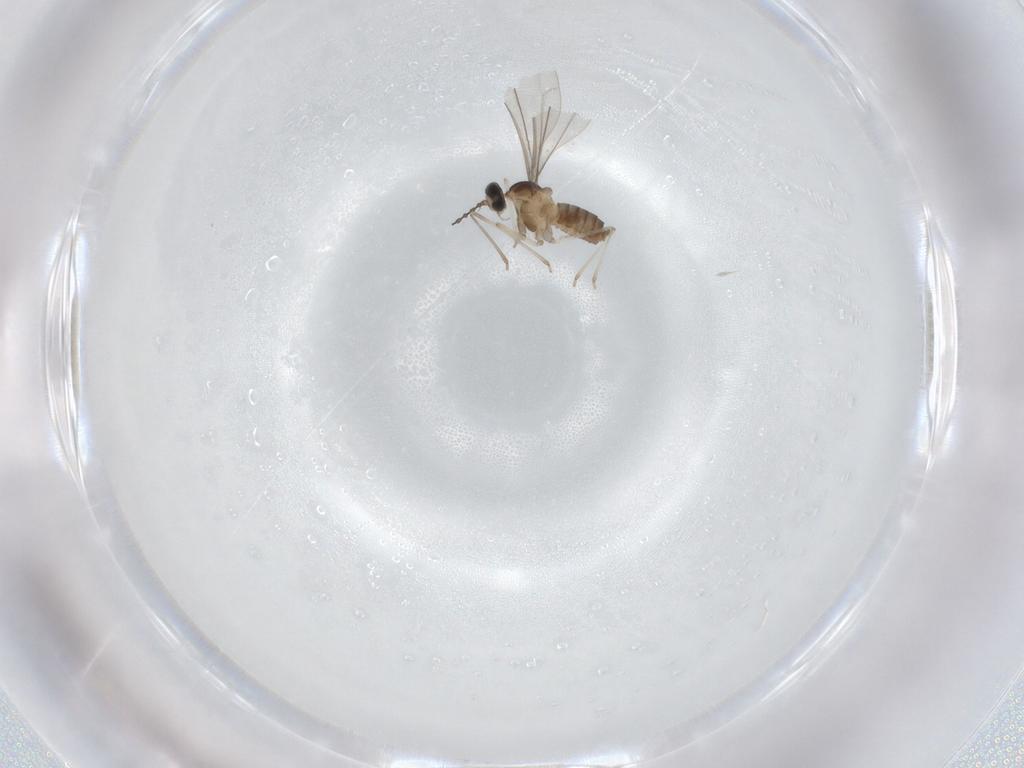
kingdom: Animalia
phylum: Arthropoda
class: Insecta
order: Diptera
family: Cecidomyiidae
